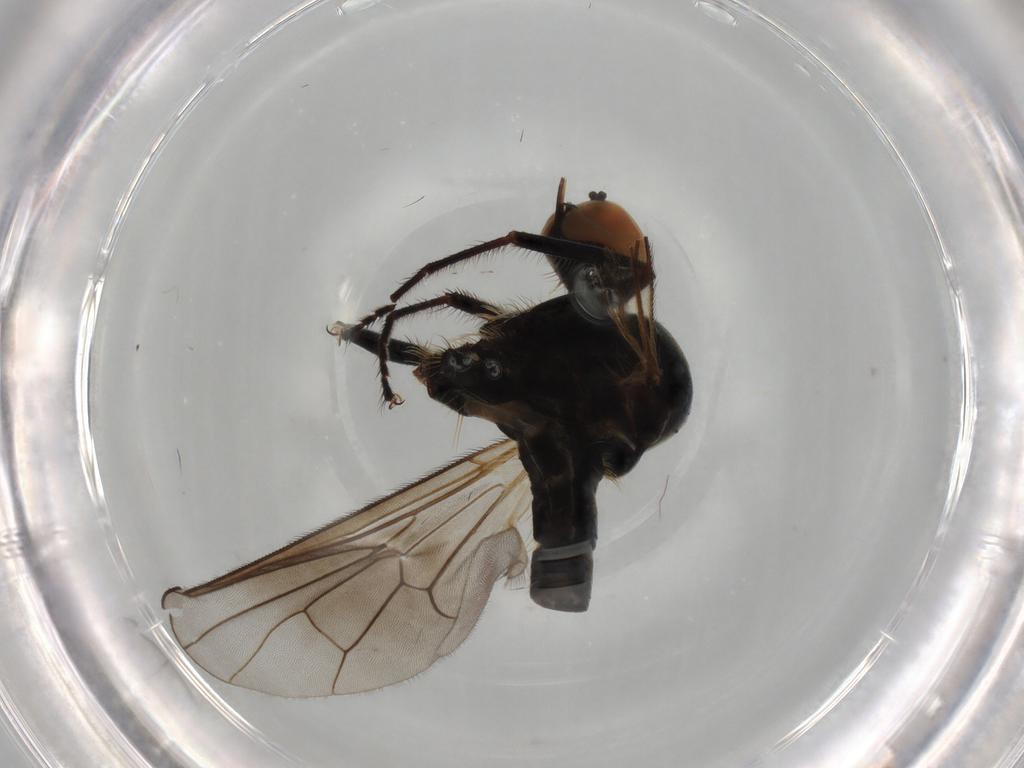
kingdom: Animalia
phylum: Arthropoda
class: Insecta
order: Diptera
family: Hybotidae
